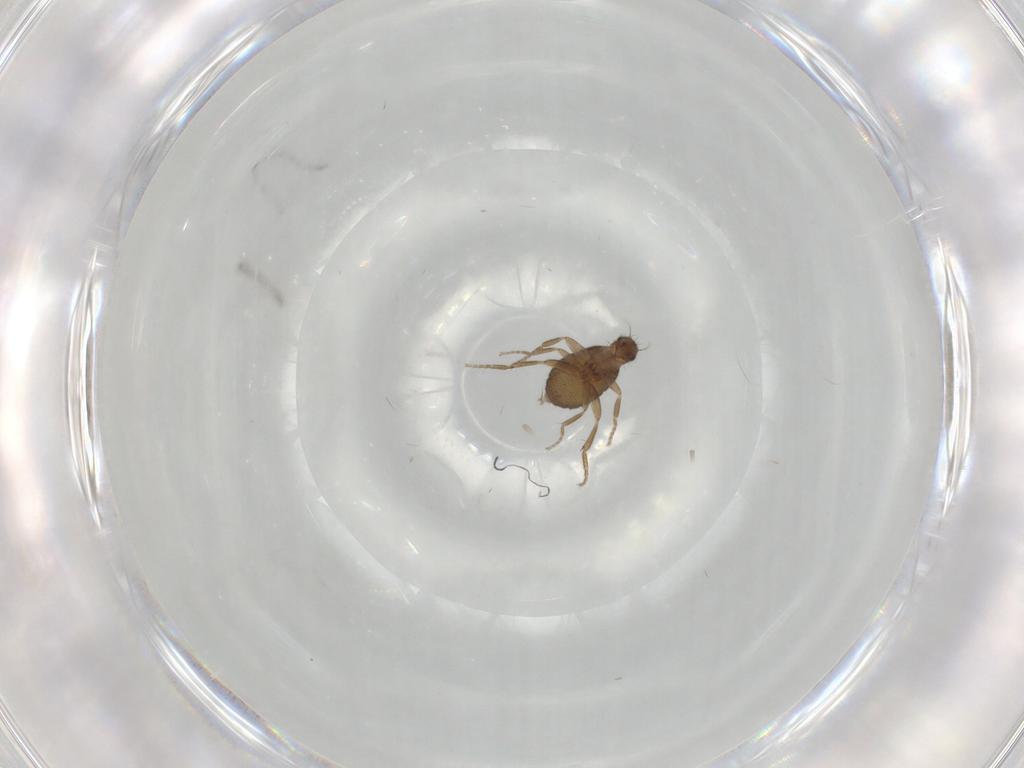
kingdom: Animalia
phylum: Arthropoda
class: Insecta
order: Diptera
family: Phoridae
